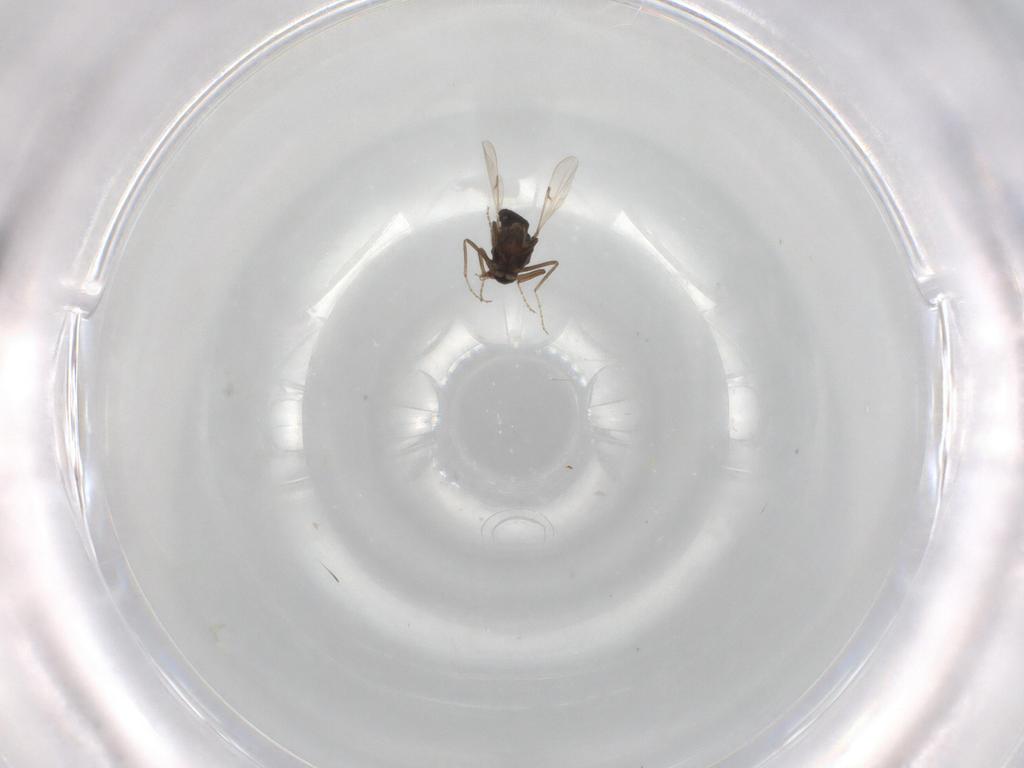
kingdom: Animalia
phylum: Arthropoda
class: Insecta
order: Diptera
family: Ceratopogonidae
